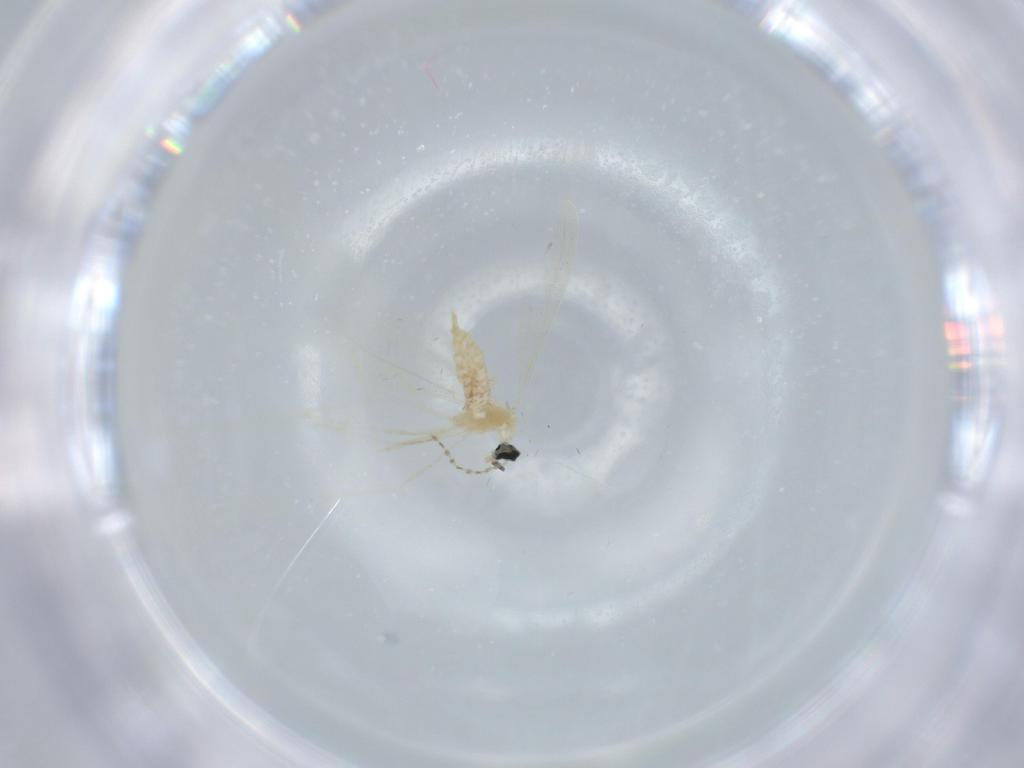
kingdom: Animalia
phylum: Arthropoda
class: Insecta
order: Diptera
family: Cecidomyiidae
